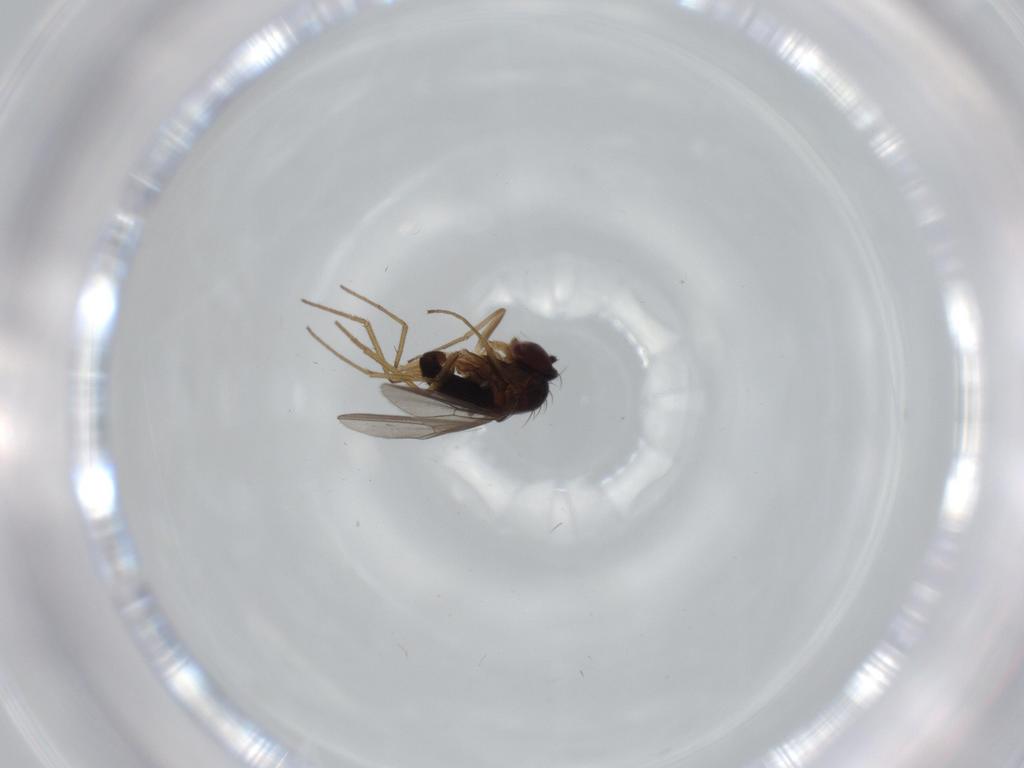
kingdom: Animalia
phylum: Arthropoda
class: Insecta
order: Diptera
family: Dolichopodidae
